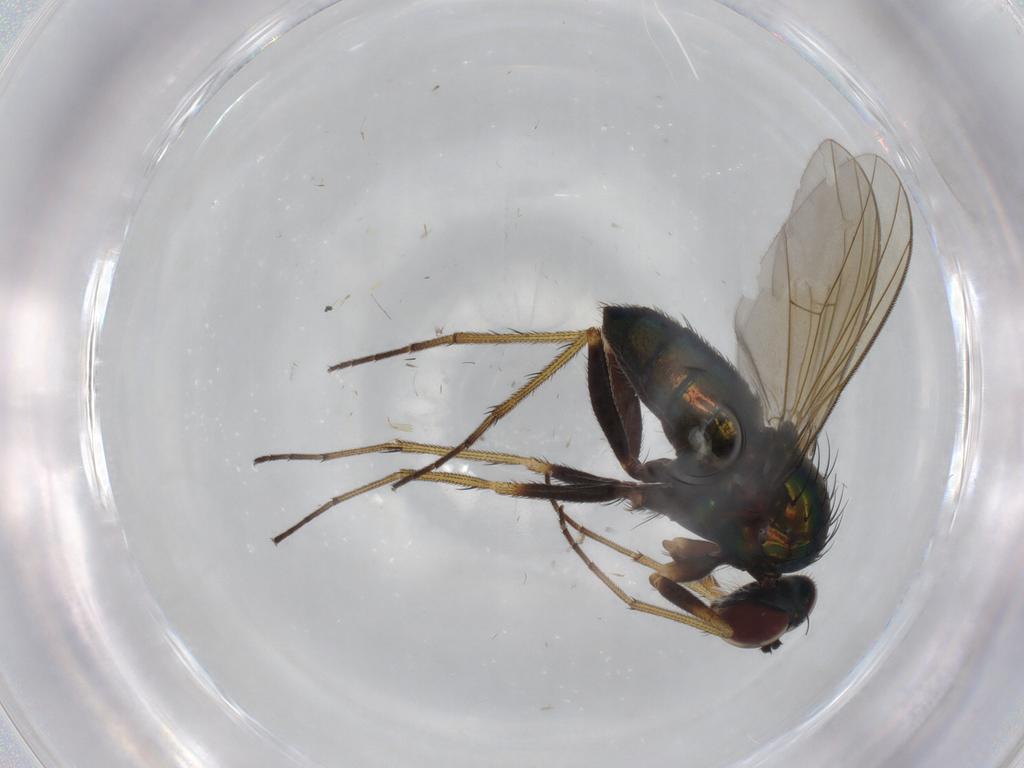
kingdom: Animalia
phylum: Arthropoda
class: Insecta
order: Diptera
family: Dolichopodidae
